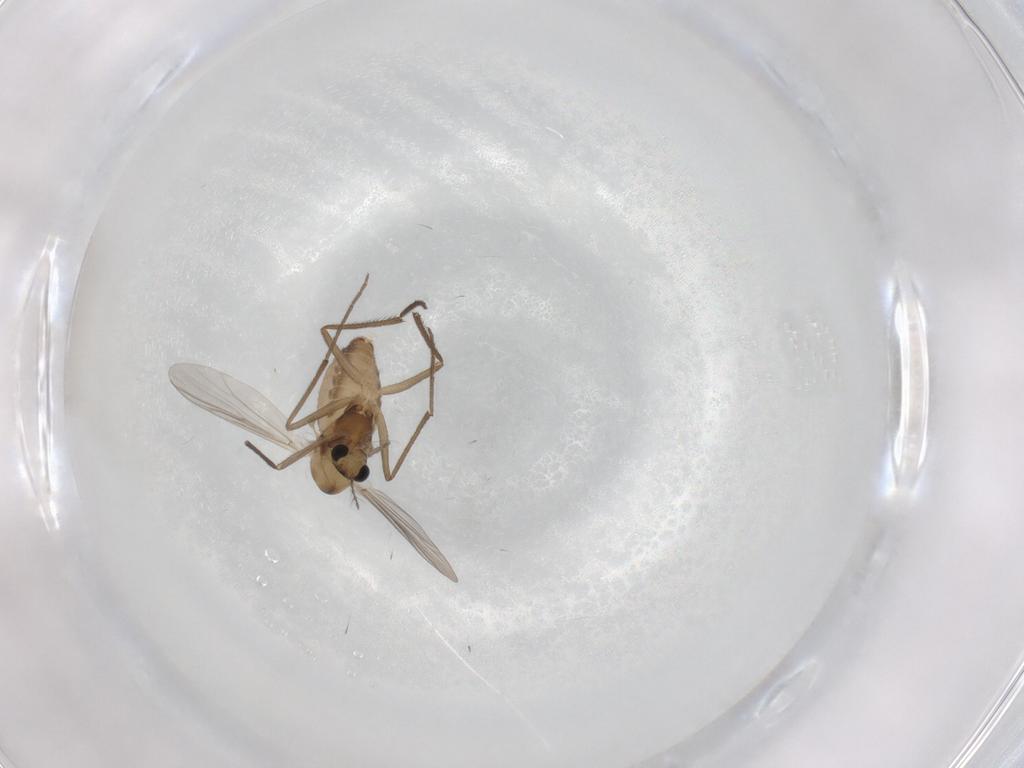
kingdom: Animalia
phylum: Arthropoda
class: Insecta
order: Diptera
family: Chironomidae
